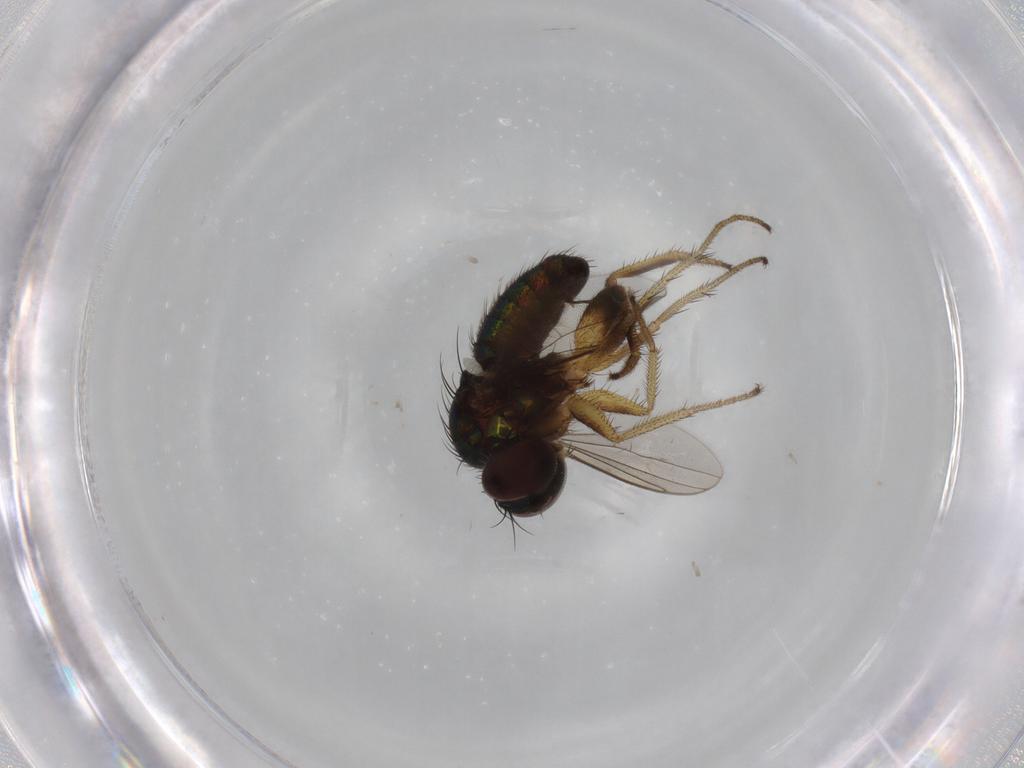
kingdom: Animalia
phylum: Arthropoda
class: Insecta
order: Diptera
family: Dolichopodidae
